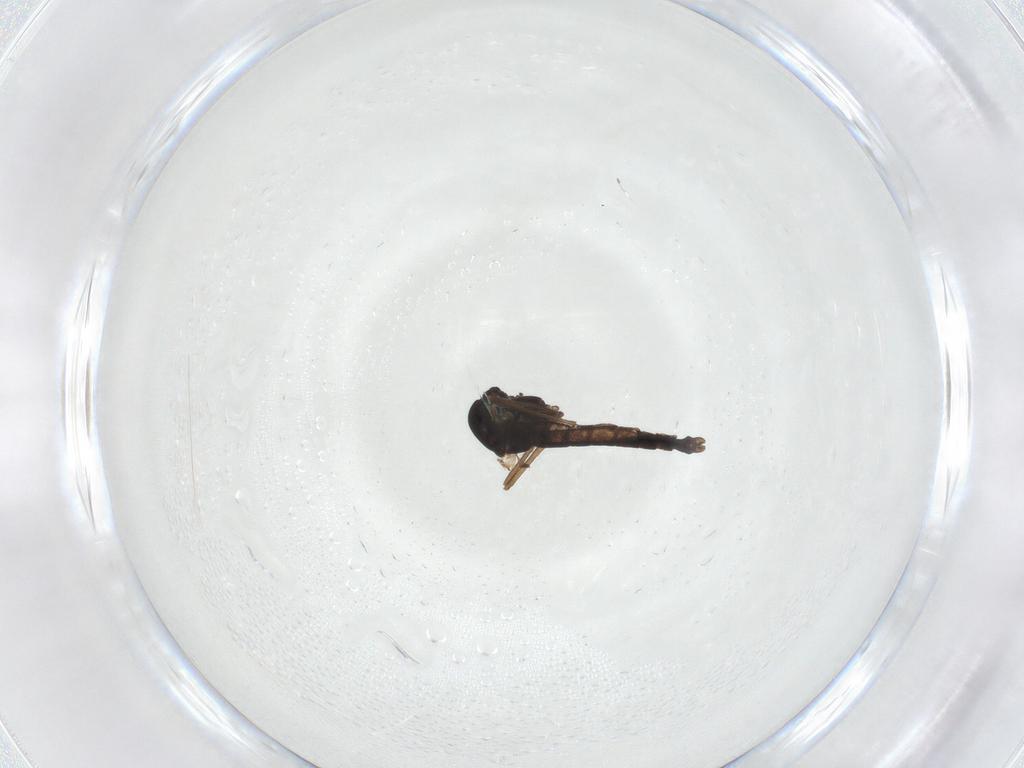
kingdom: Animalia
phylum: Arthropoda
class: Insecta
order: Diptera
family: Chironomidae
